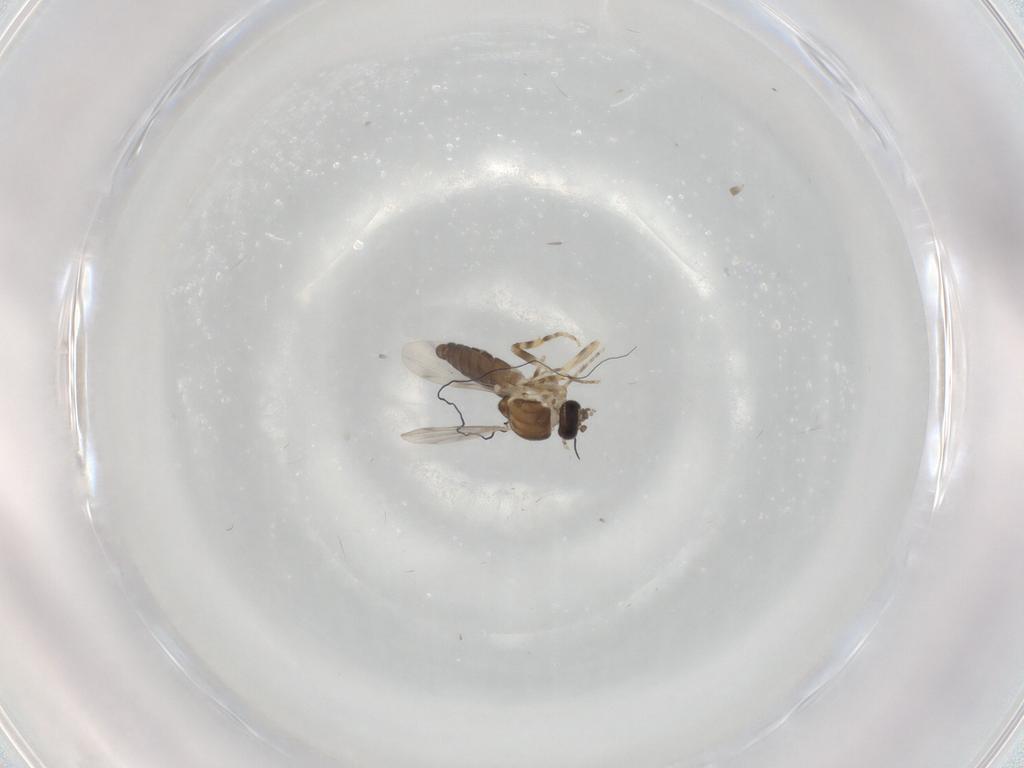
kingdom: Animalia
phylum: Arthropoda
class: Insecta
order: Diptera
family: Ceratopogonidae
